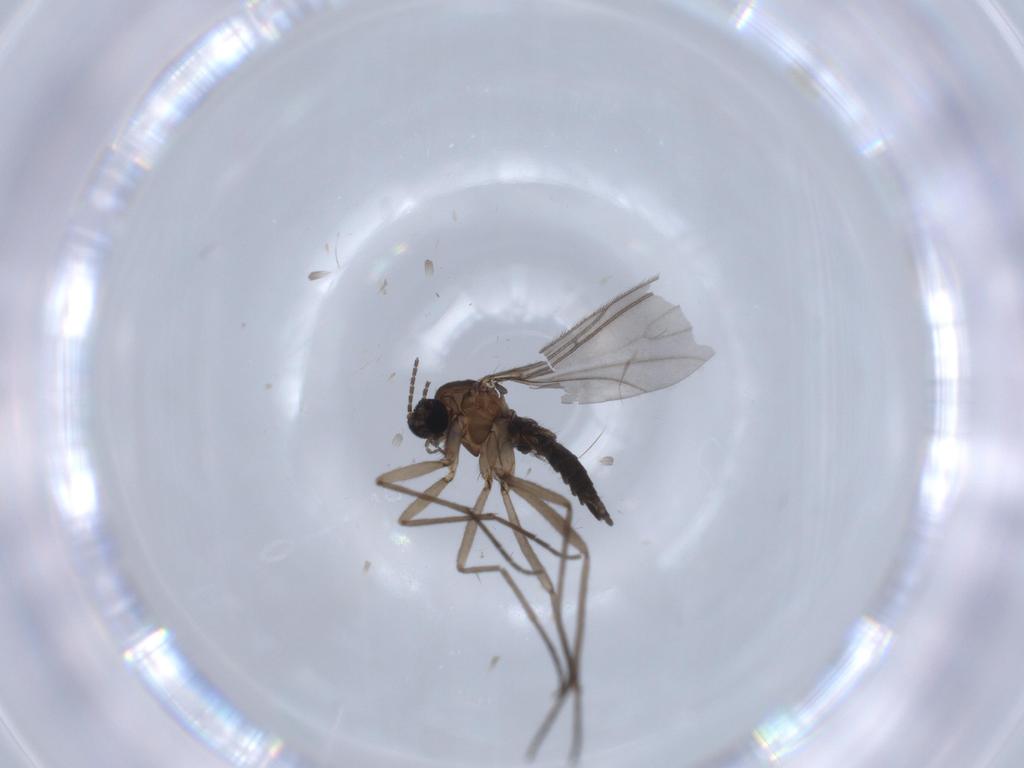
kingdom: Animalia
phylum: Arthropoda
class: Insecta
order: Diptera
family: Sciaridae
